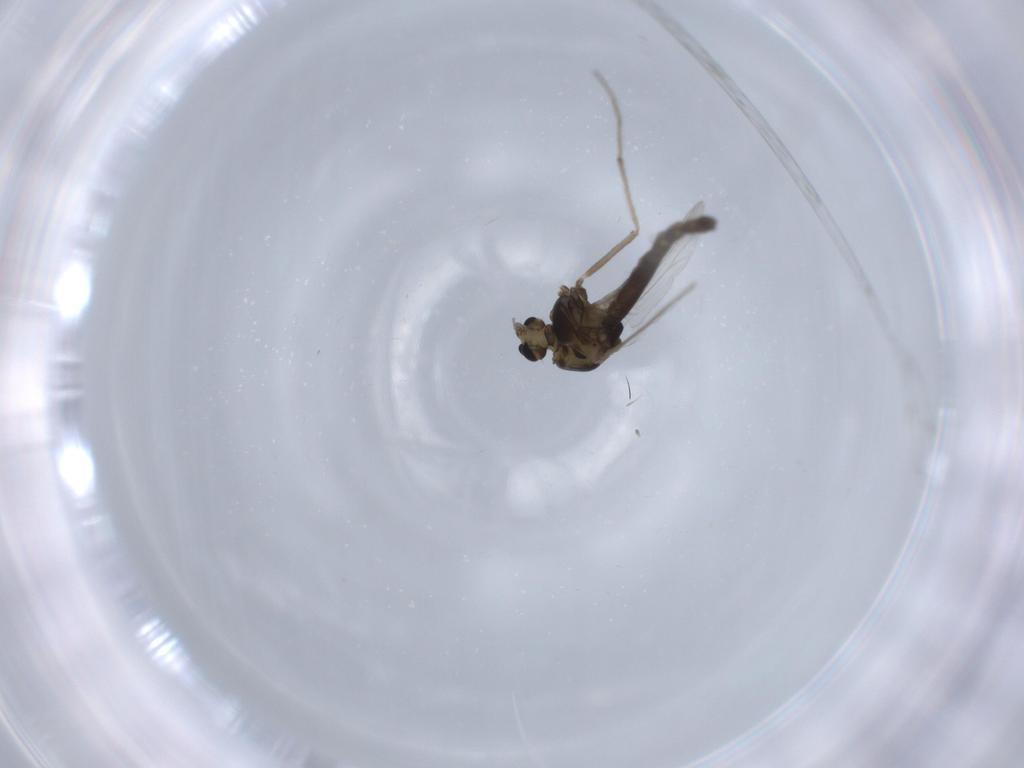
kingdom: Animalia
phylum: Arthropoda
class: Insecta
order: Diptera
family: Chironomidae
